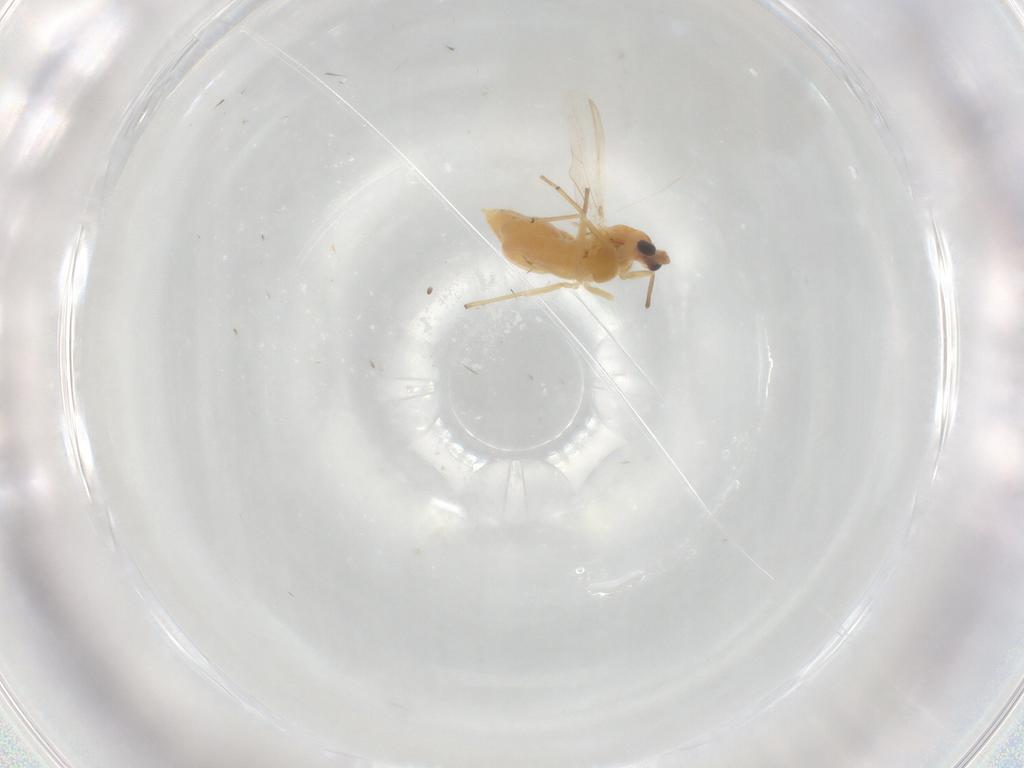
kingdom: Animalia
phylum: Arthropoda
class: Insecta
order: Diptera
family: Chironomidae
